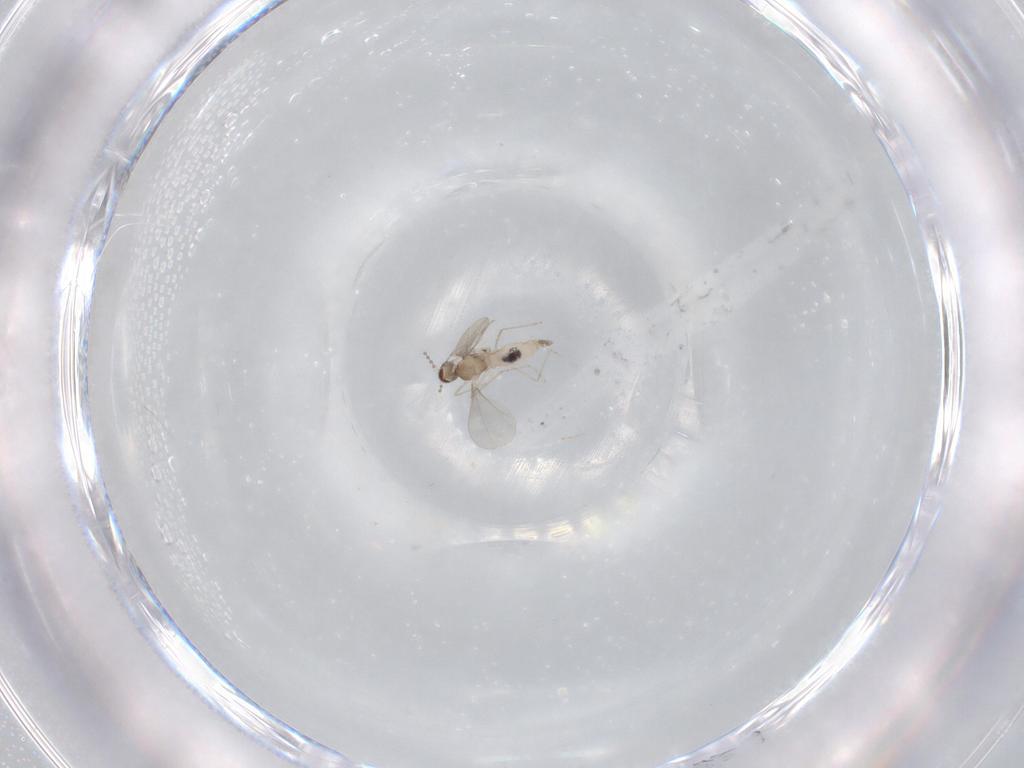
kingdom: Animalia
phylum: Arthropoda
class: Insecta
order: Diptera
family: Cecidomyiidae
